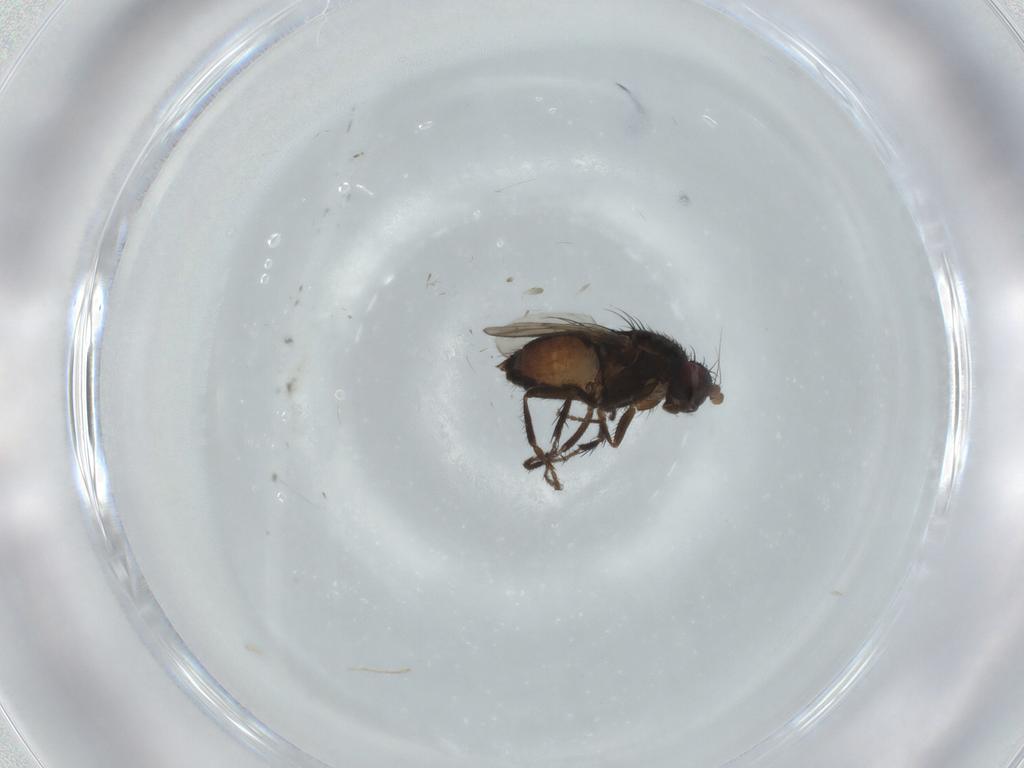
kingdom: Animalia
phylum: Arthropoda
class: Insecta
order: Diptera
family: Sphaeroceridae
